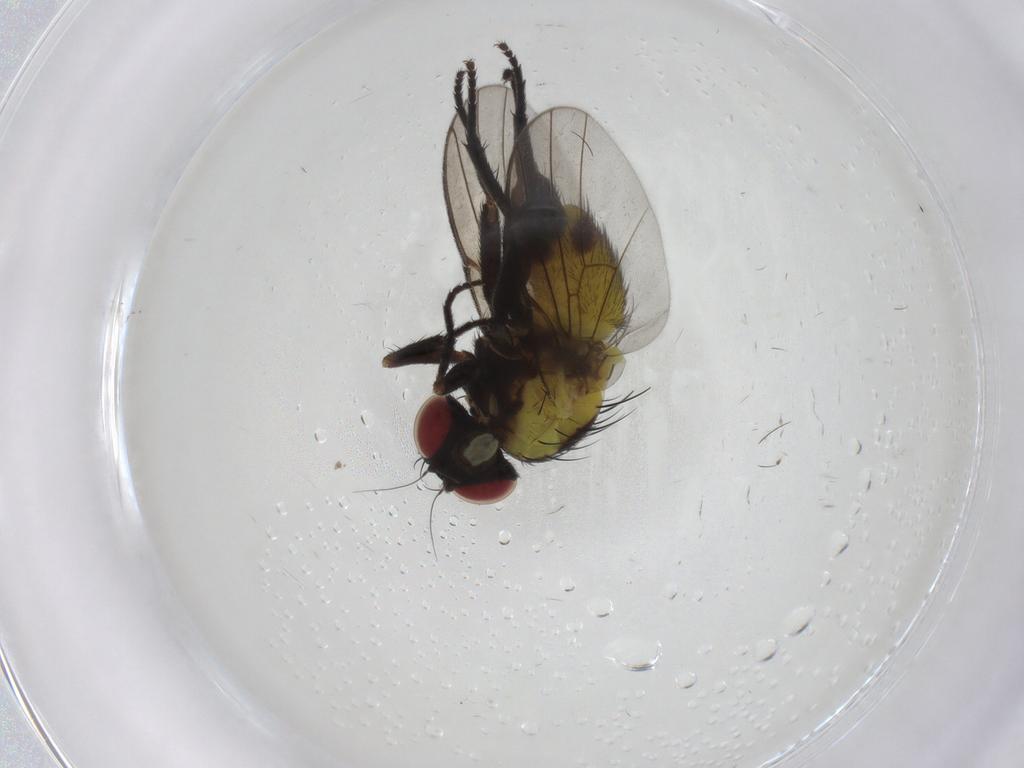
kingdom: Animalia
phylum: Arthropoda
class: Insecta
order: Diptera
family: Agromyzidae
